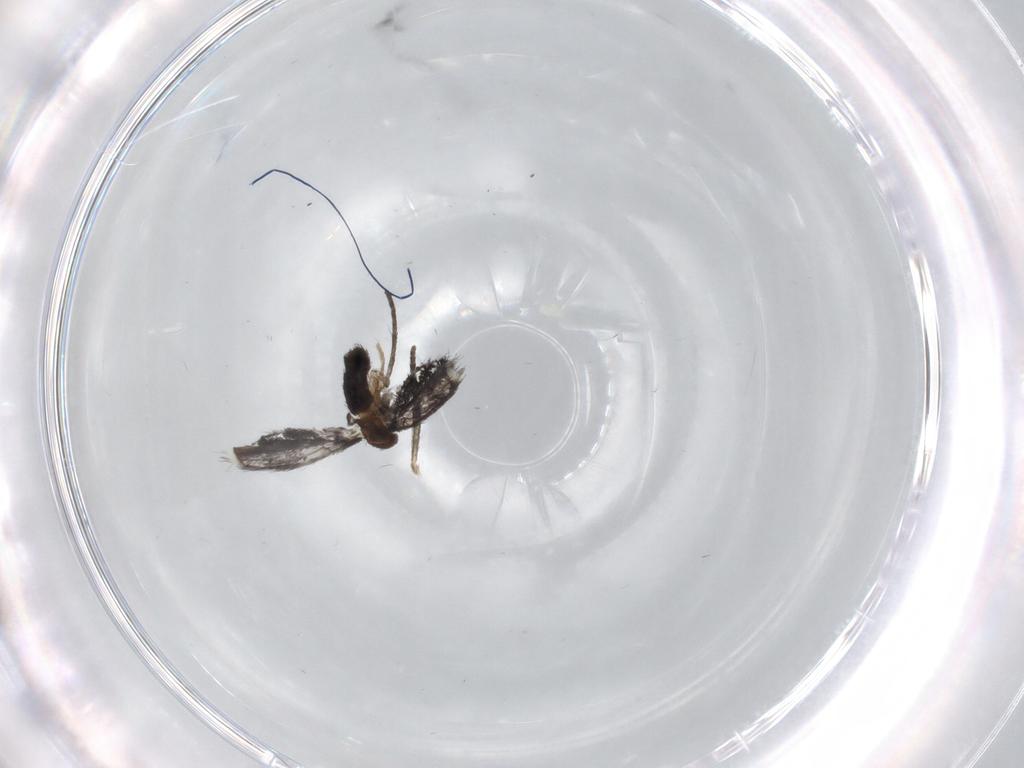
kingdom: Animalia
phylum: Arthropoda
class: Insecta
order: Diptera
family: Psychodidae
